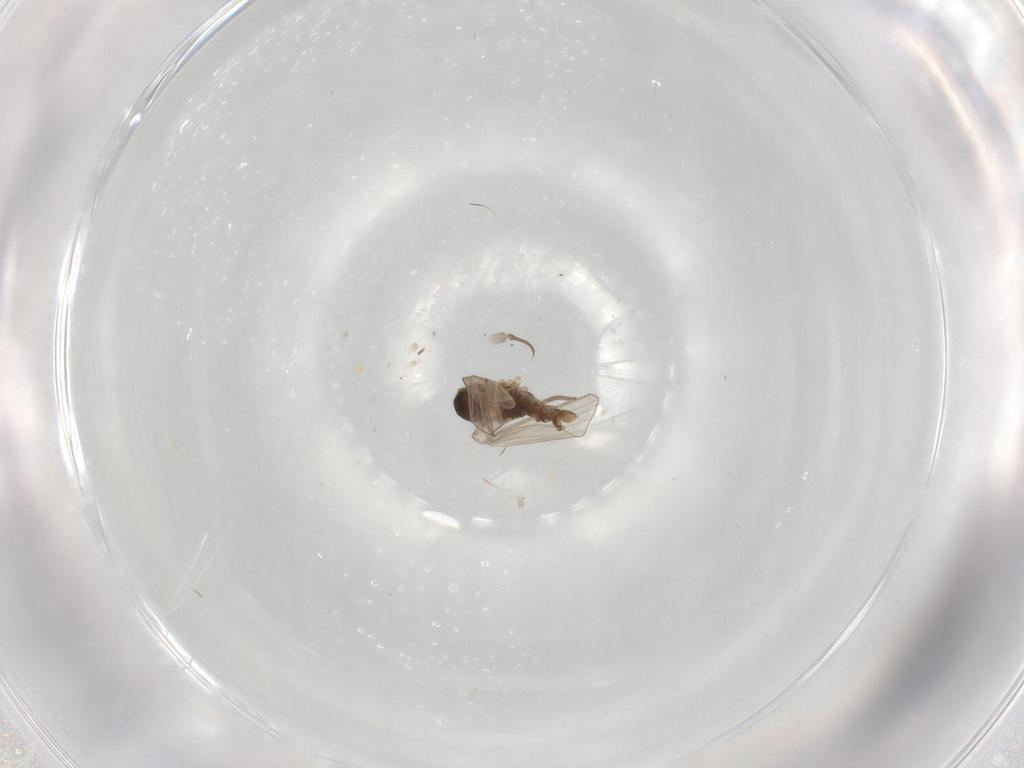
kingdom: Animalia
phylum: Arthropoda
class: Insecta
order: Diptera
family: Psychodidae
